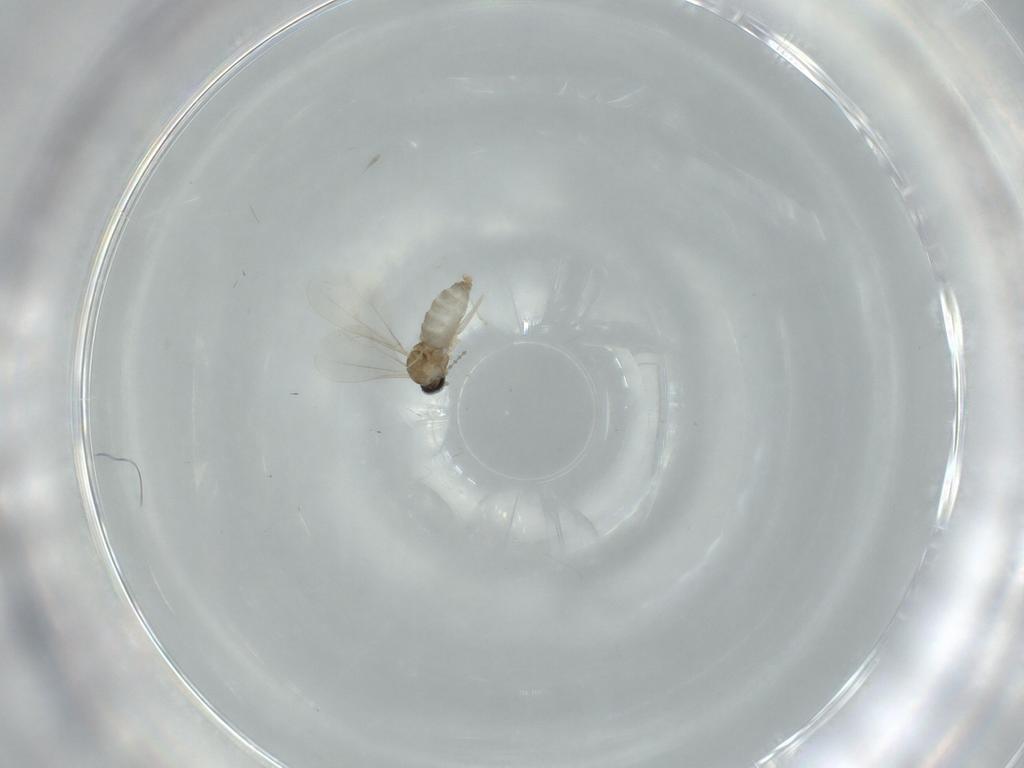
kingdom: Animalia
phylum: Arthropoda
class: Insecta
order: Diptera
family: Cecidomyiidae
